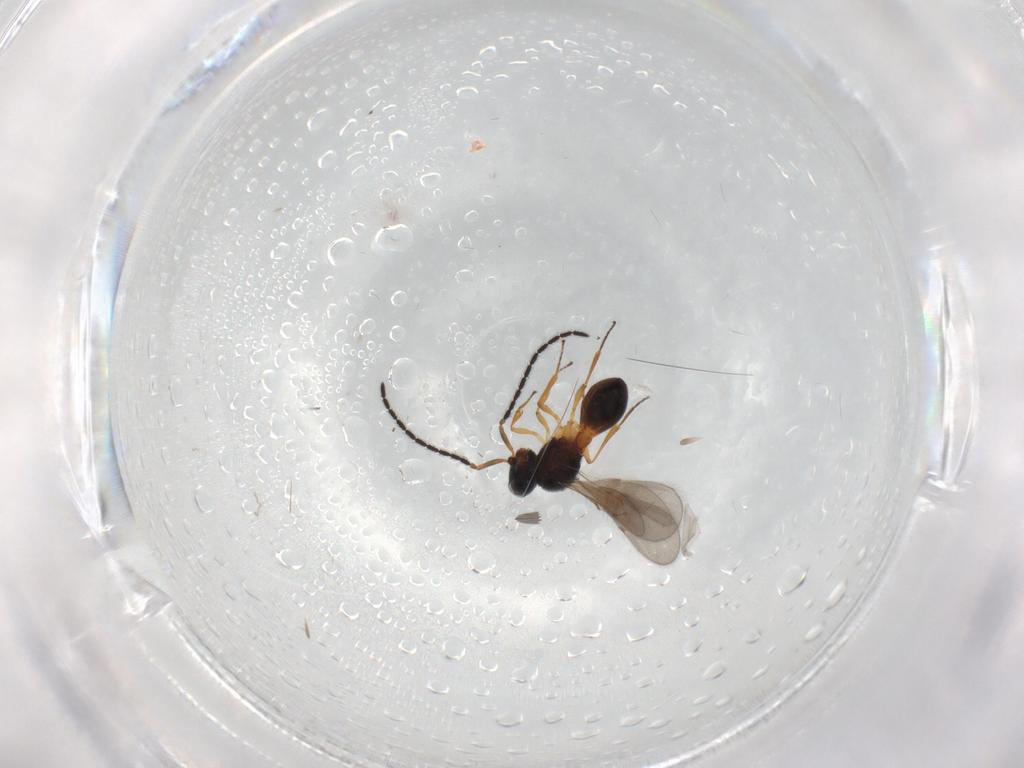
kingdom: Animalia
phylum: Arthropoda
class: Insecta
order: Hymenoptera
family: Scelionidae
